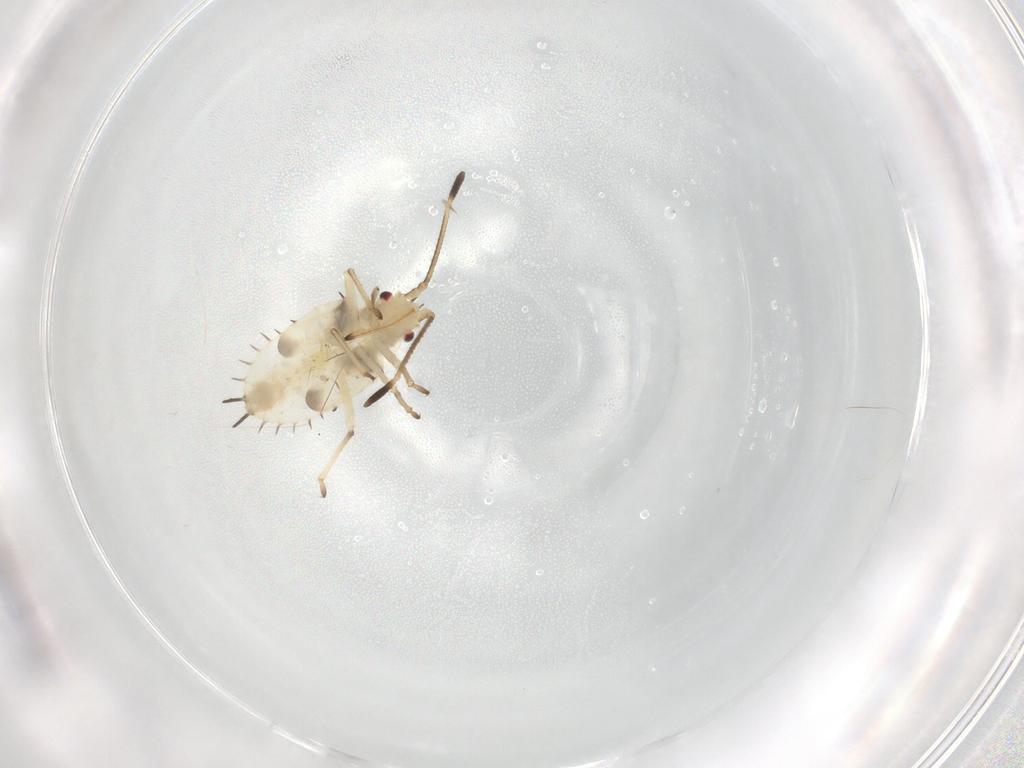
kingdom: Animalia
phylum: Arthropoda
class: Insecta
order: Hemiptera
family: Tingidae
